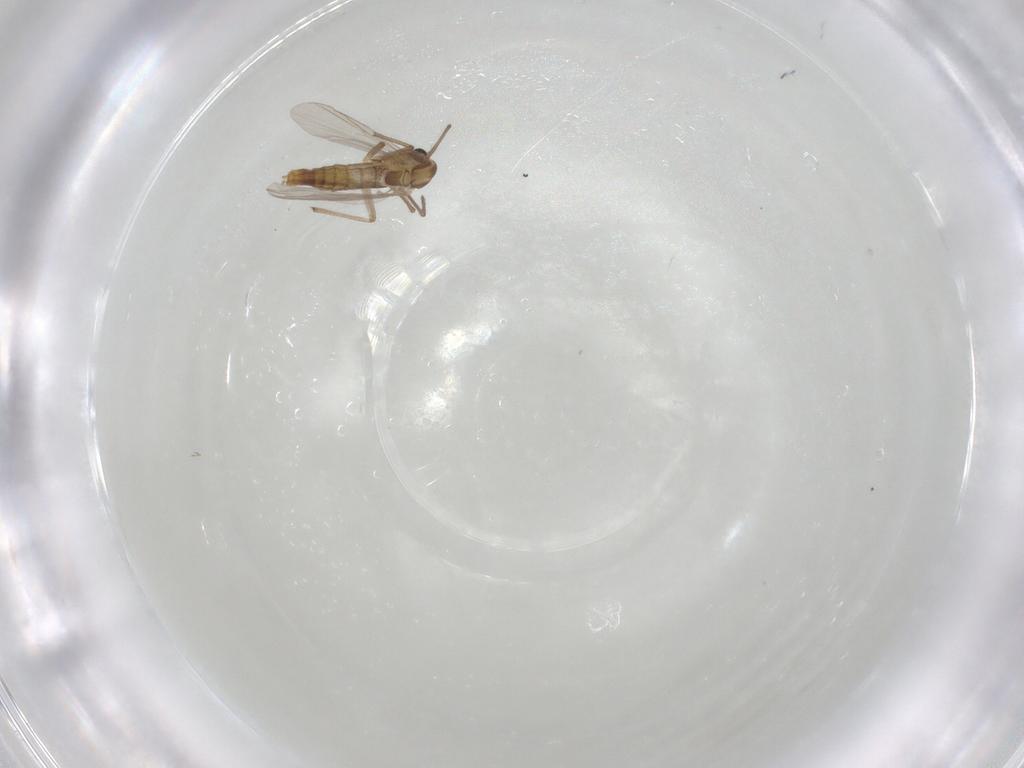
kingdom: Animalia
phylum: Arthropoda
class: Insecta
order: Diptera
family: Chironomidae
